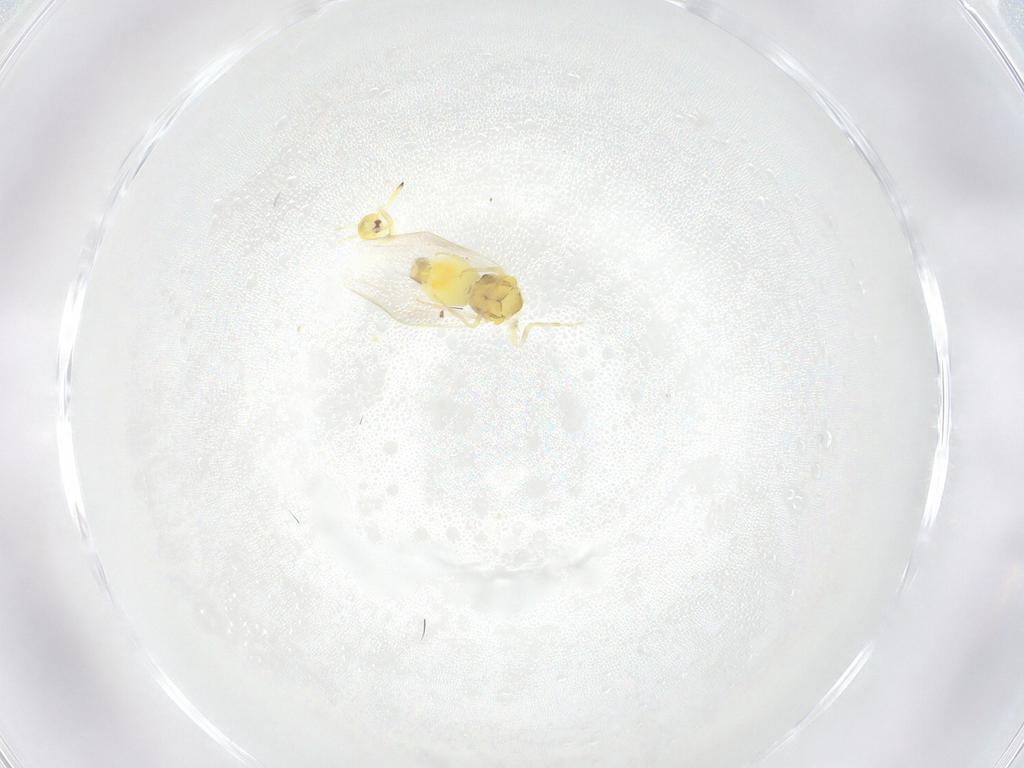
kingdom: Animalia
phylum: Arthropoda
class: Insecta
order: Hemiptera
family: Aleyrodidae
